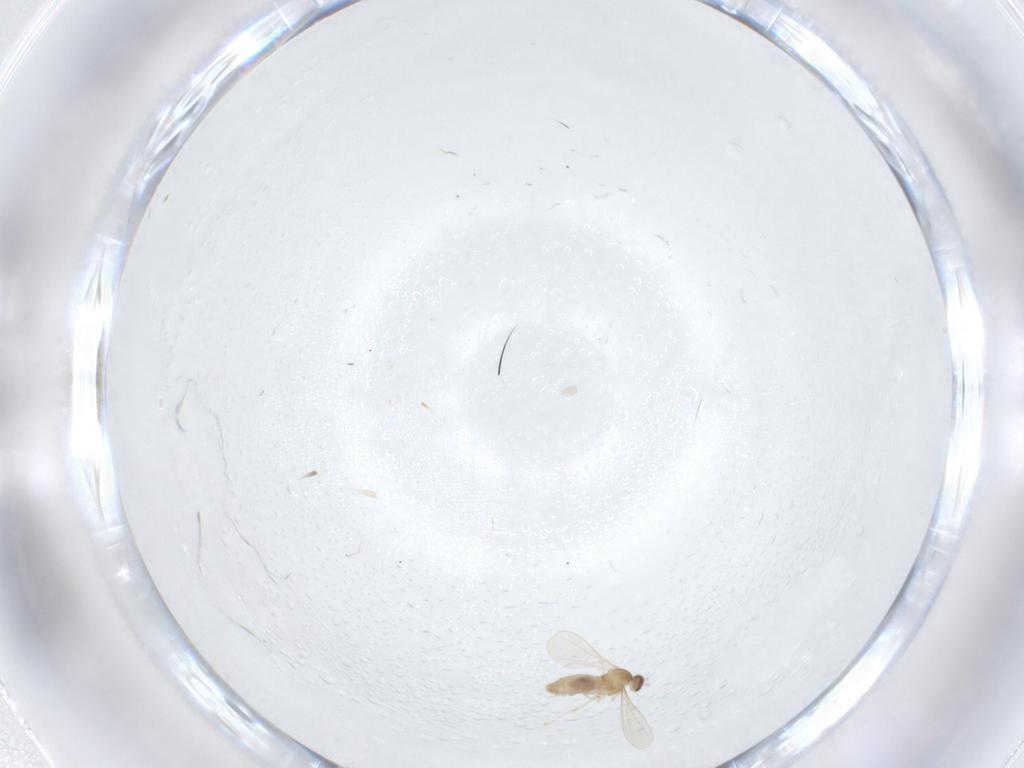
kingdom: Animalia
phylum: Arthropoda
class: Insecta
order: Diptera
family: Cecidomyiidae
